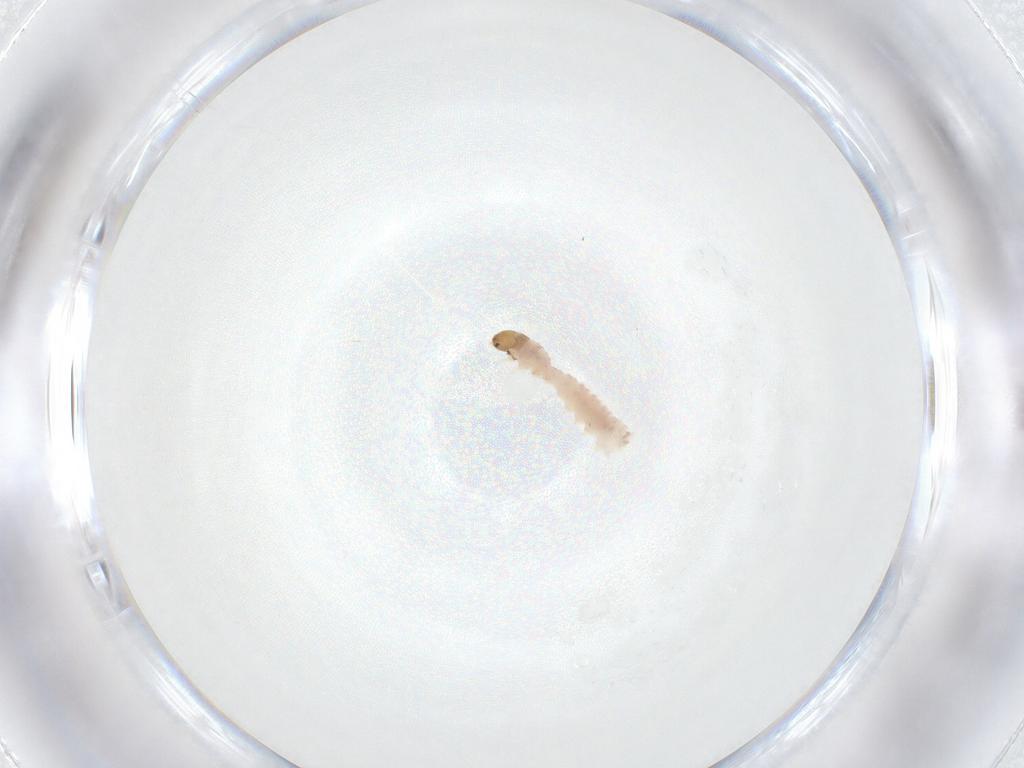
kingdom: Animalia
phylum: Arthropoda
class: Insecta
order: Lepidoptera
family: Blastobasidae
